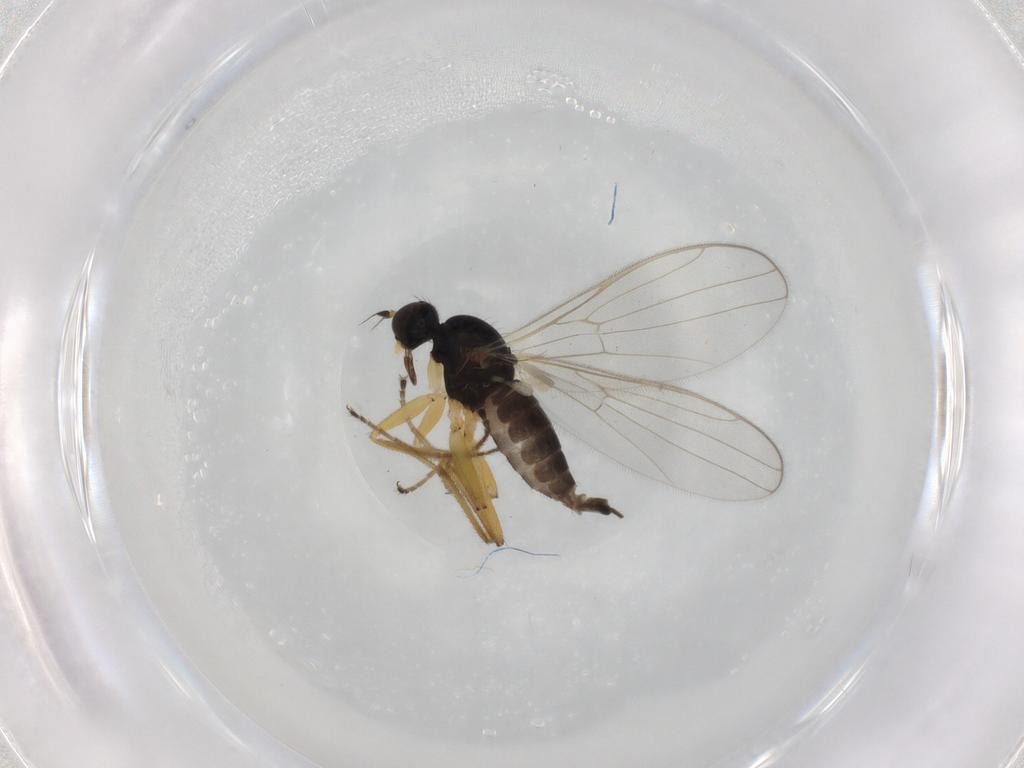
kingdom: Animalia
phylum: Arthropoda
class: Insecta
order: Diptera
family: Hybotidae
